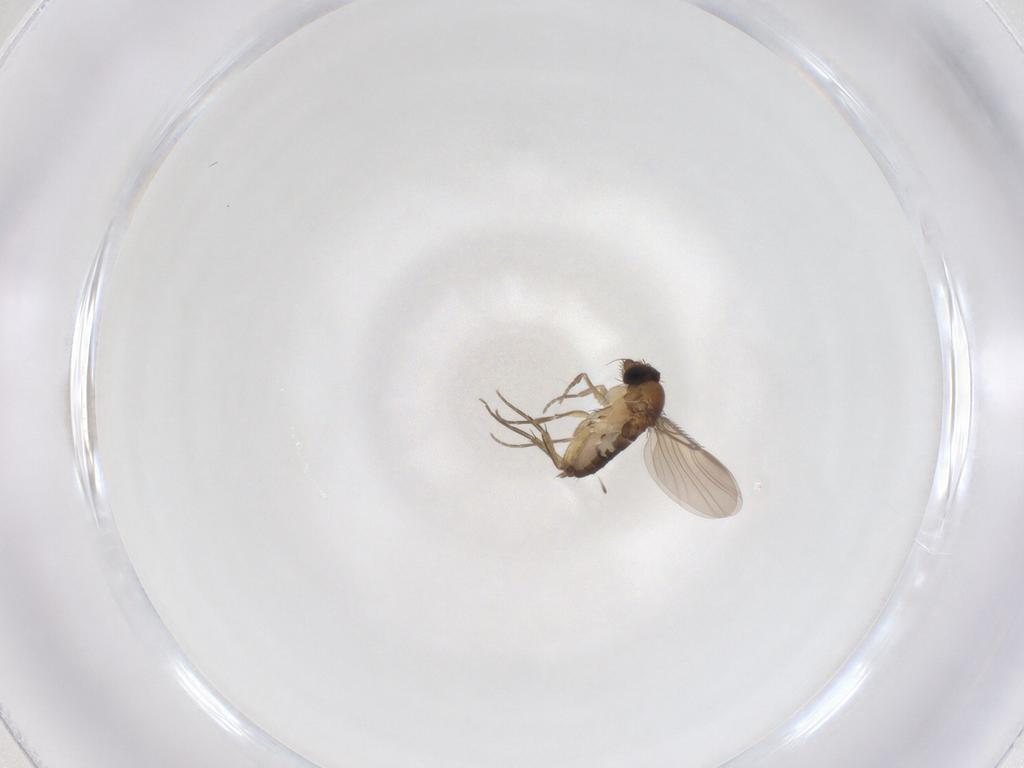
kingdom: Animalia
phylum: Arthropoda
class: Insecta
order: Diptera
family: Phoridae
